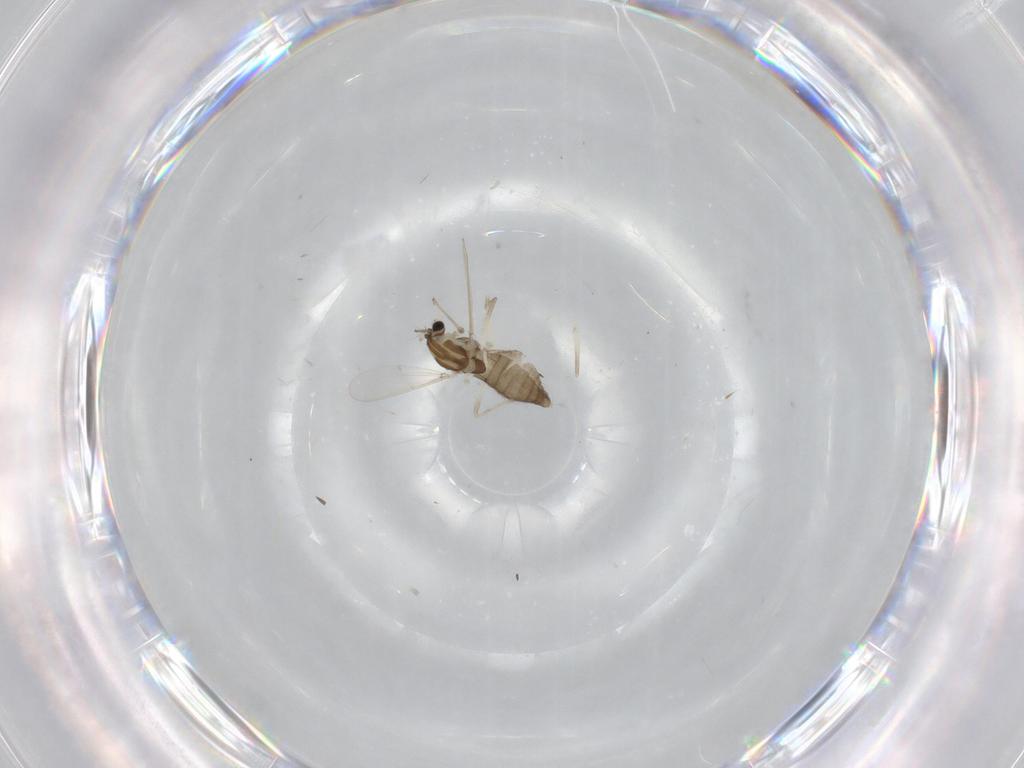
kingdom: Animalia
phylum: Arthropoda
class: Insecta
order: Diptera
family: Chironomidae
